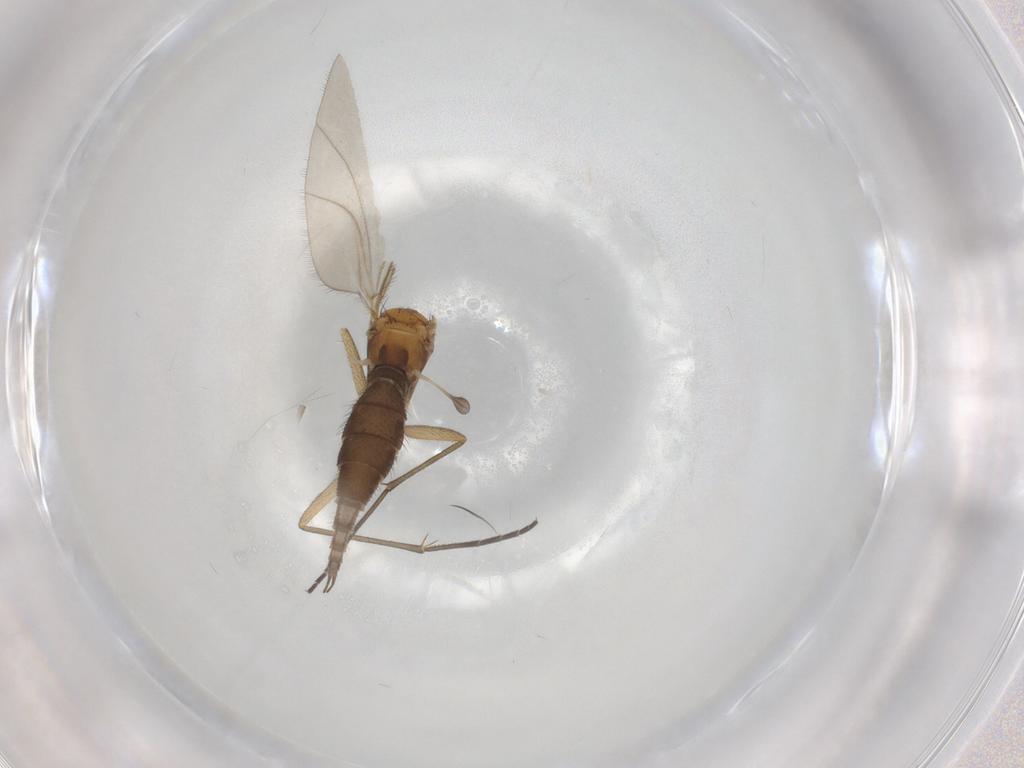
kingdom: Animalia
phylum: Arthropoda
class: Insecta
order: Diptera
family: Sciaridae
